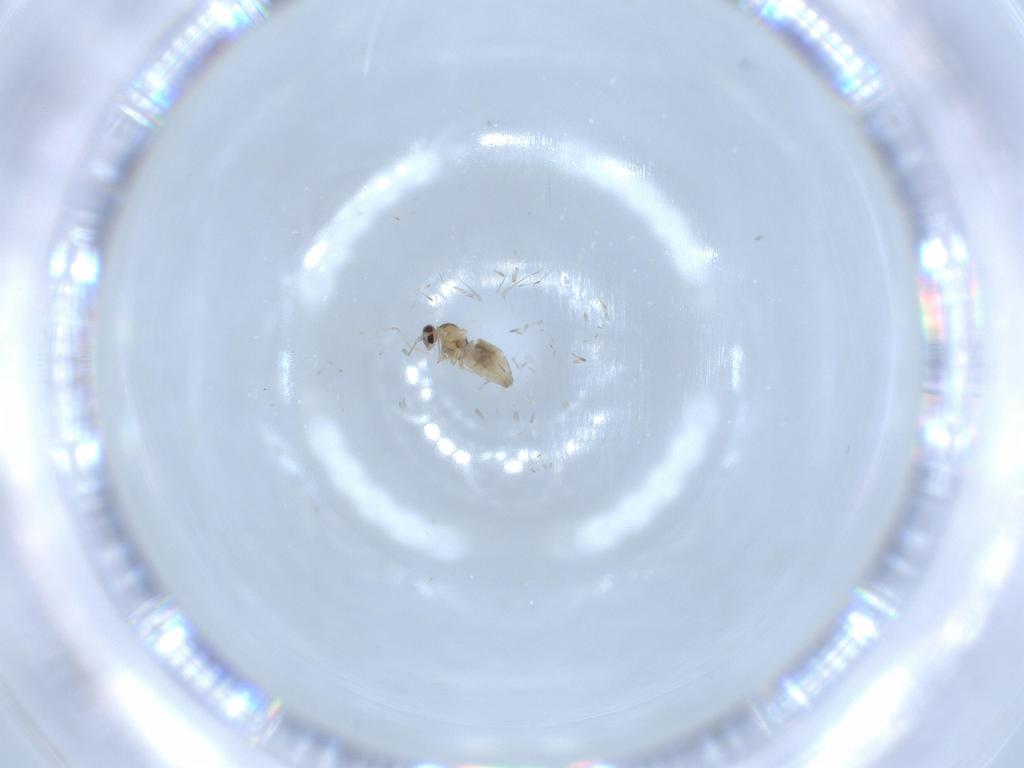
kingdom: Animalia
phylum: Arthropoda
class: Insecta
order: Diptera
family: Cecidomyiidae
